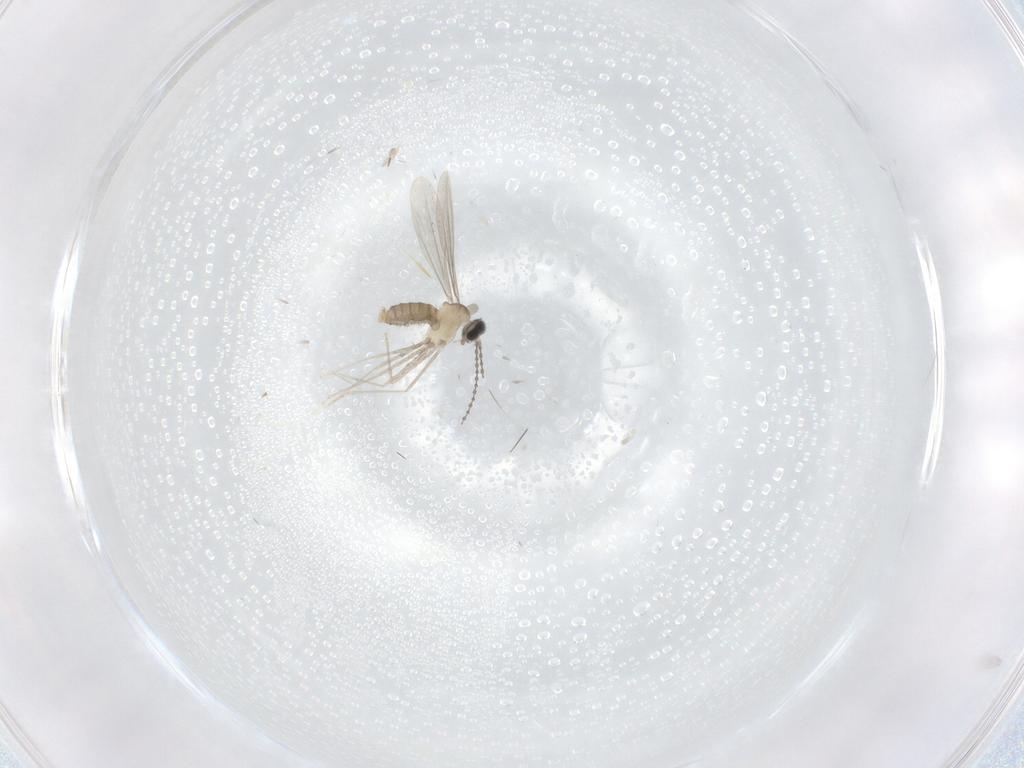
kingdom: Animalia
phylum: Arthropoda
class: Insecta
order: Diptera
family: Cecidomyiidae
